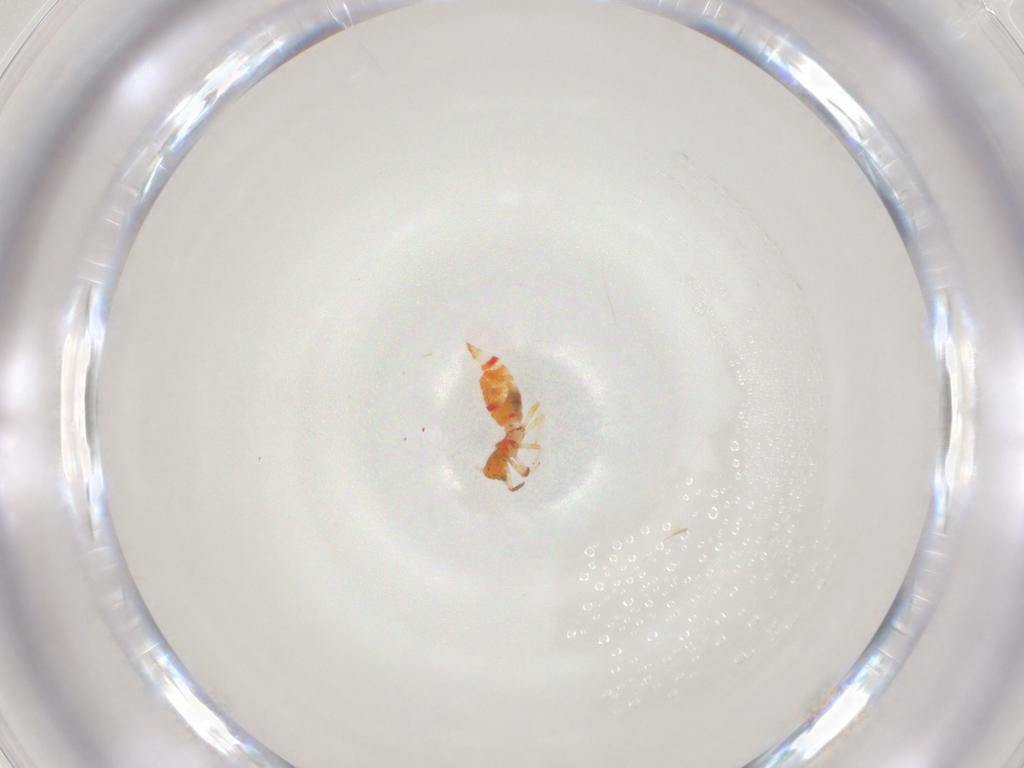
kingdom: Animalia
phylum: Arthropoda
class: Insecta
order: Thysanoptera
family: Aeolothripidae
